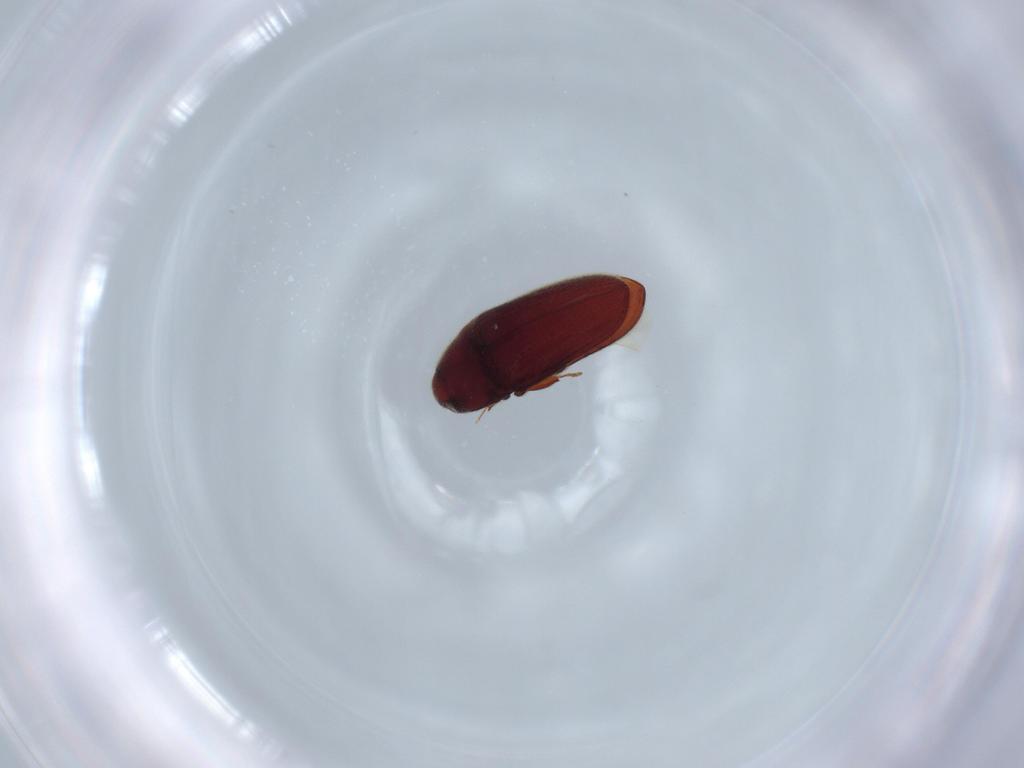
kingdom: Animalia
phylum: Arthropoda
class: Insecta
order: Coleoptera
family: Throscidae
